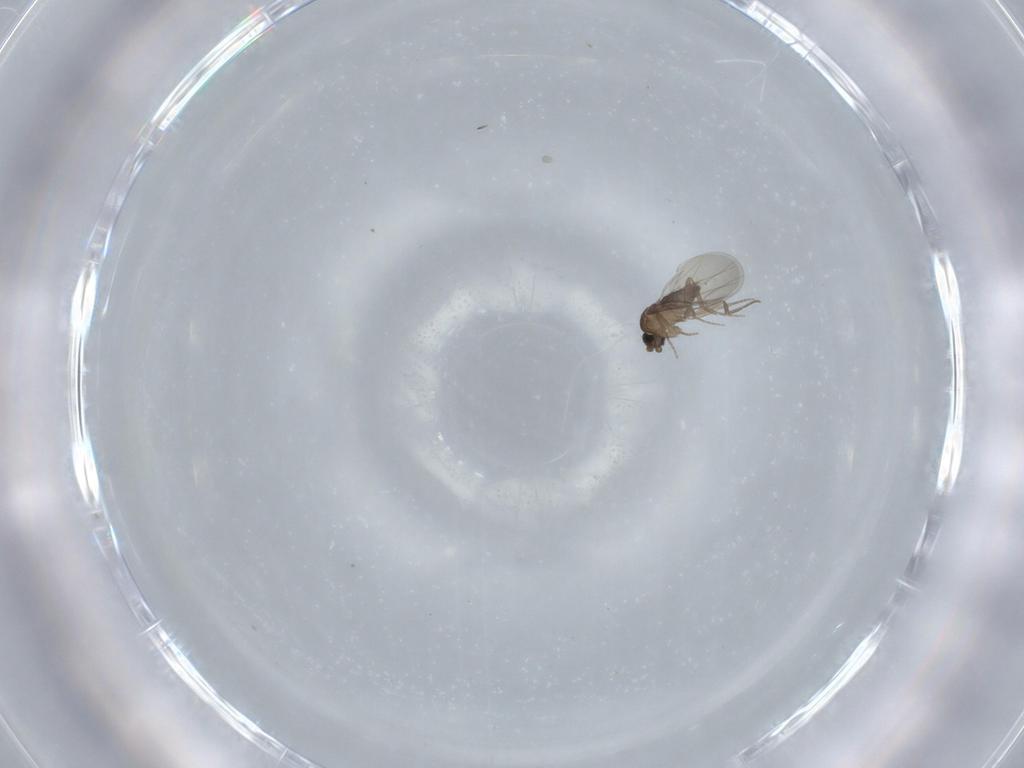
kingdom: Animalia
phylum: Arthropoda
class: Insecta
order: Diptera
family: Phoridae
